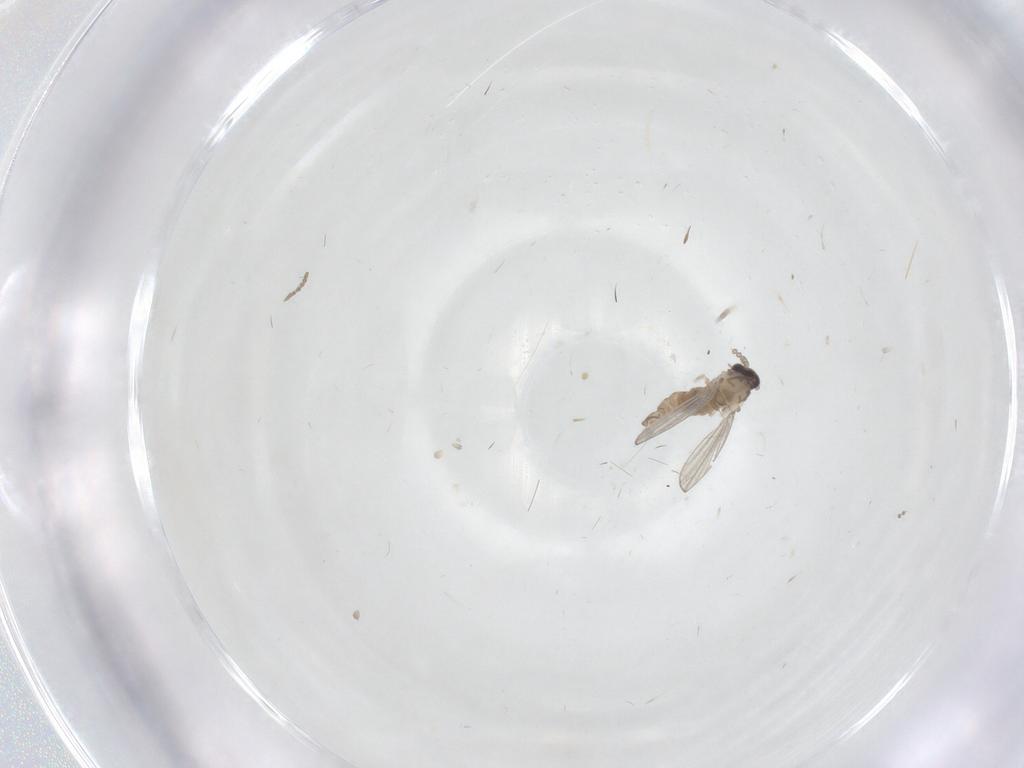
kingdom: Animalia
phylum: Arthropoda
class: Insecta
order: Diptera
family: Psychodidae
